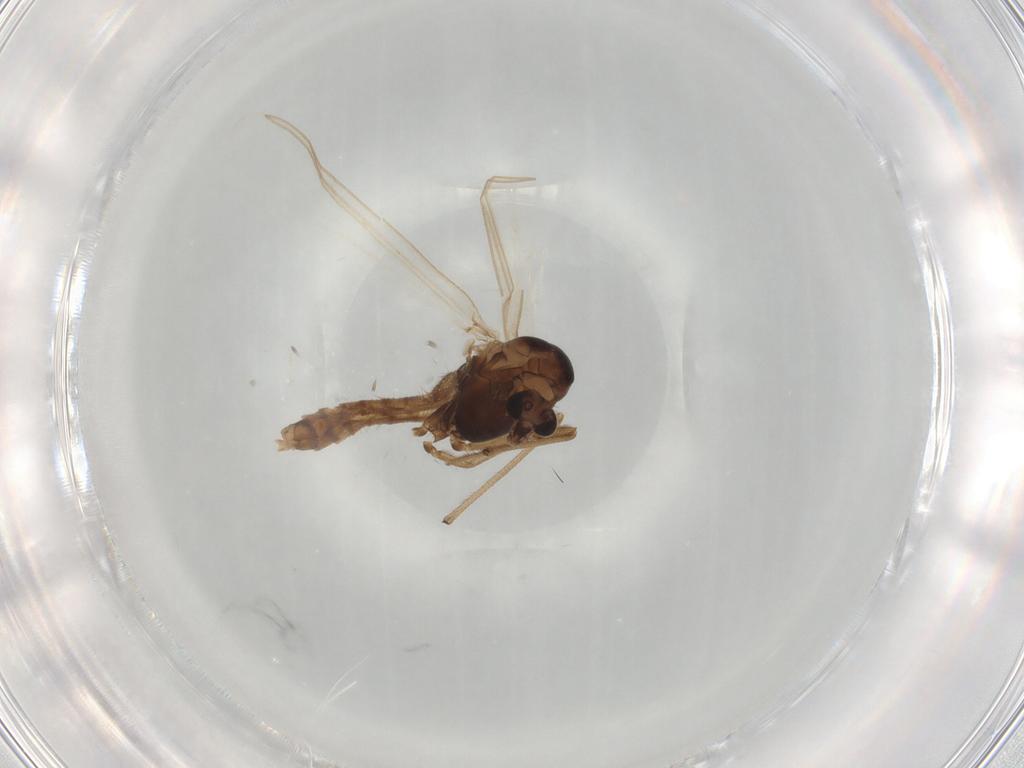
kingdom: Animalia
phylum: Arthropoda
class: Insecta
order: Diptera
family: Chironomidae
